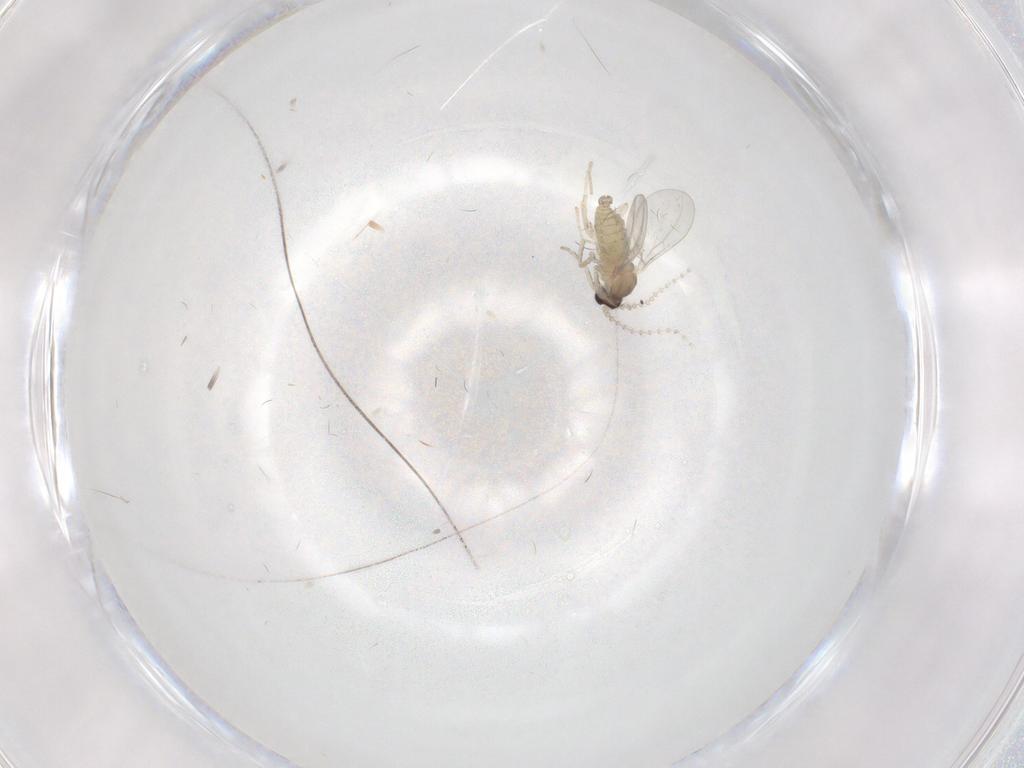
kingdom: Animalia
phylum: Arthropoda
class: Insecta
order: Diptera
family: Cecidomyiidae
